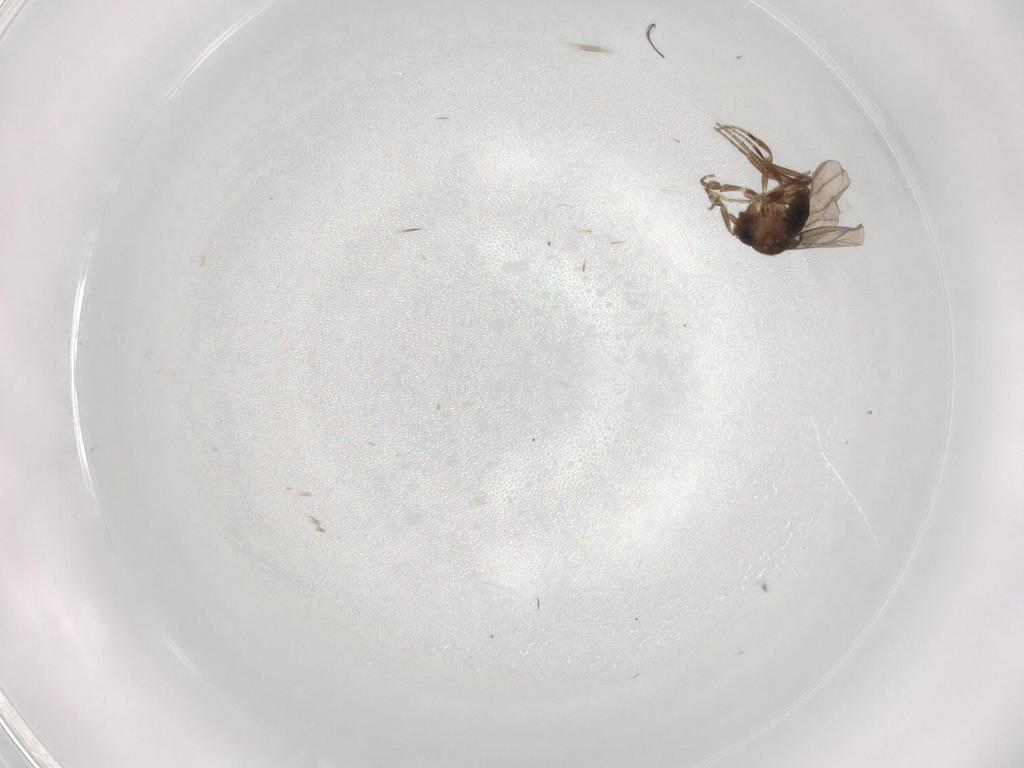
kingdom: Animalia
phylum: Arthropoda
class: Insecta
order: Diptera
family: Phoridae
